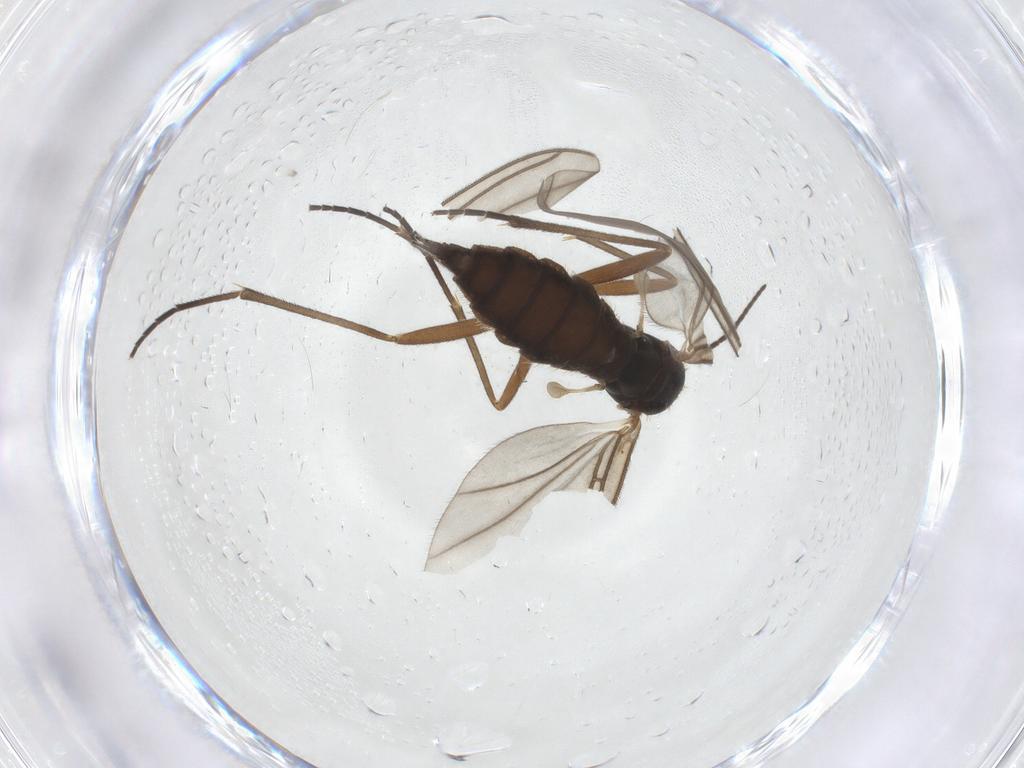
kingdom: Animalia
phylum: Arthropoda
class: Insecta
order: Diptera
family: Sciaridae
